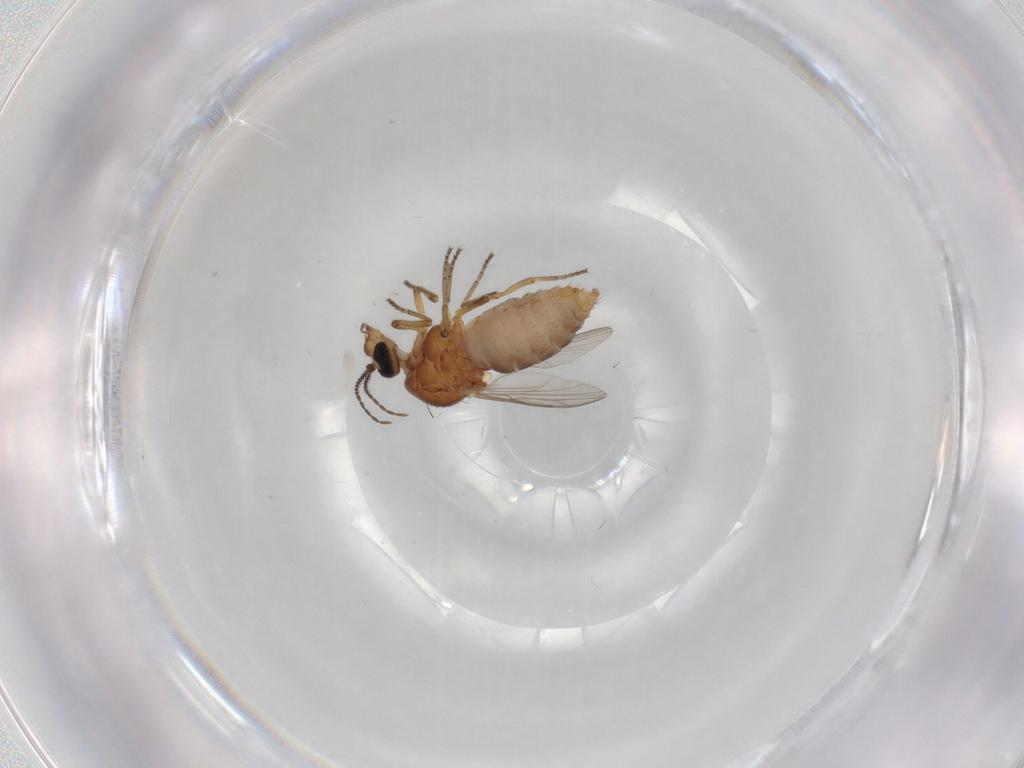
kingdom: Animalia
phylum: Arthropoda
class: Insecta
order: Diptera
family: Ceratopogonidae
